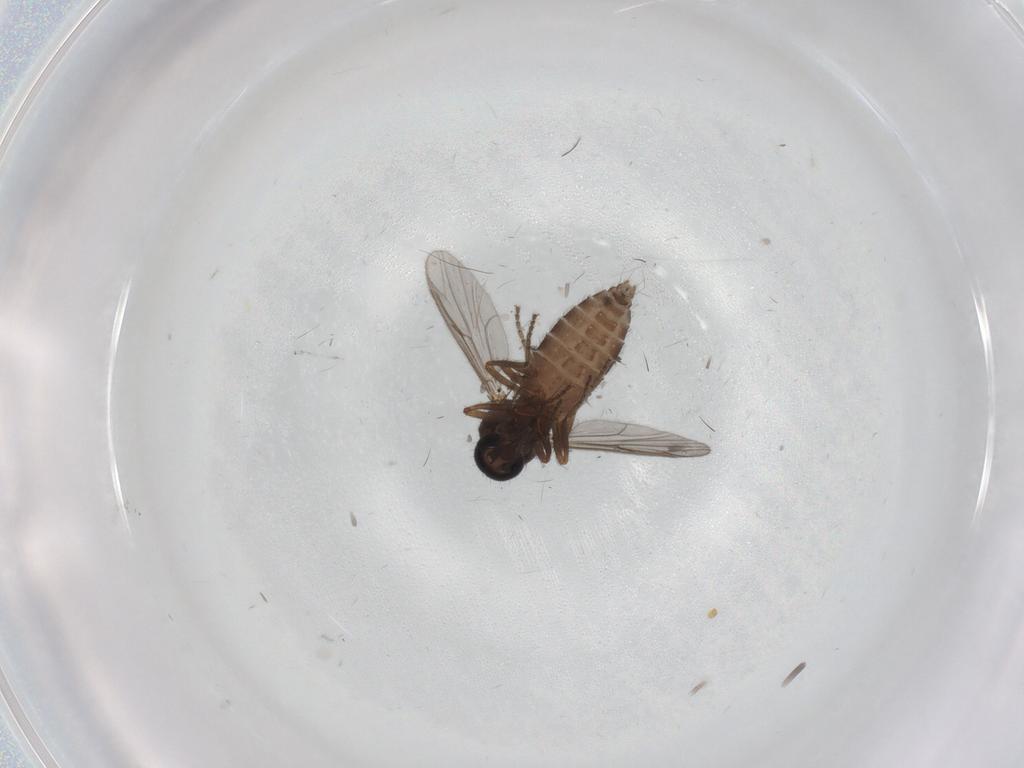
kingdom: Animalia
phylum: Arthropoda
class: Insecta
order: Diptera
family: Ceratopogonidae
